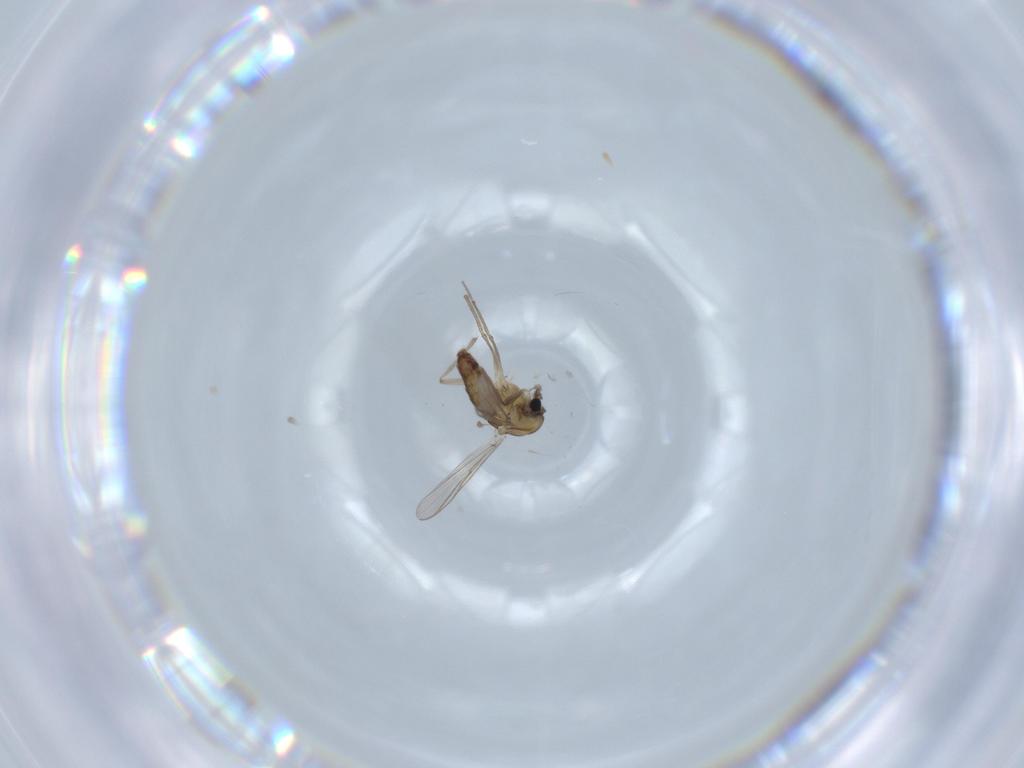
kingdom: Animalia
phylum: Arthropoda
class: Insecta
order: Diptera
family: Chironomidae
